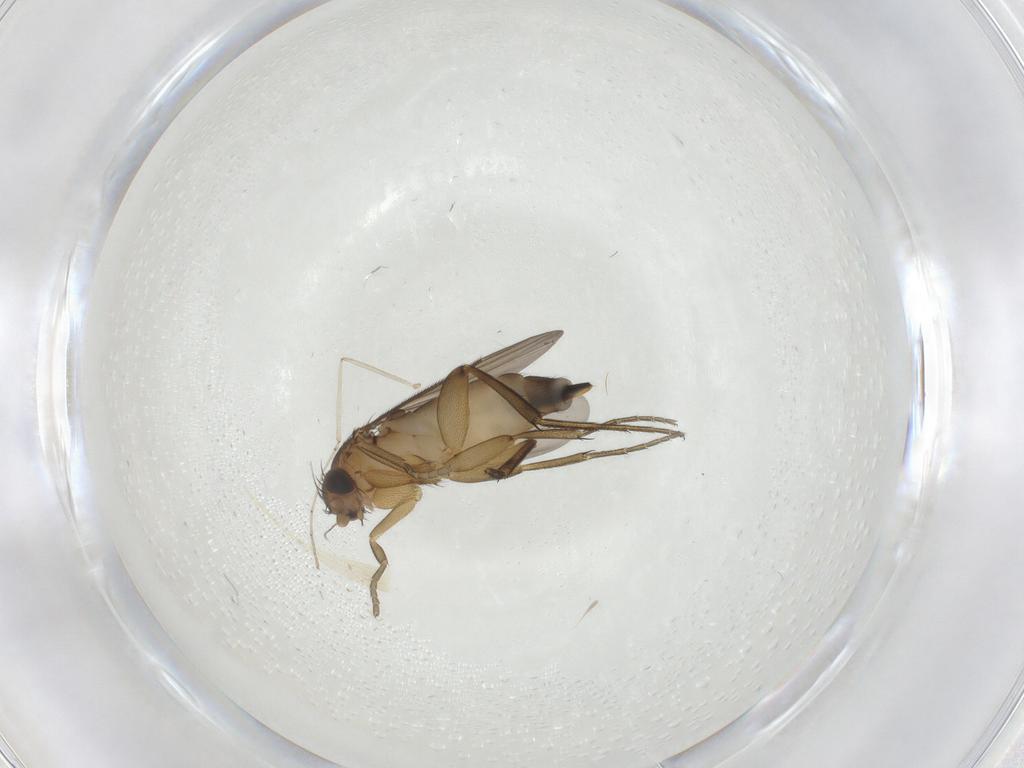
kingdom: Animalia
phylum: Arthropoda
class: Insecta
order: Diptera
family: Phoridae
